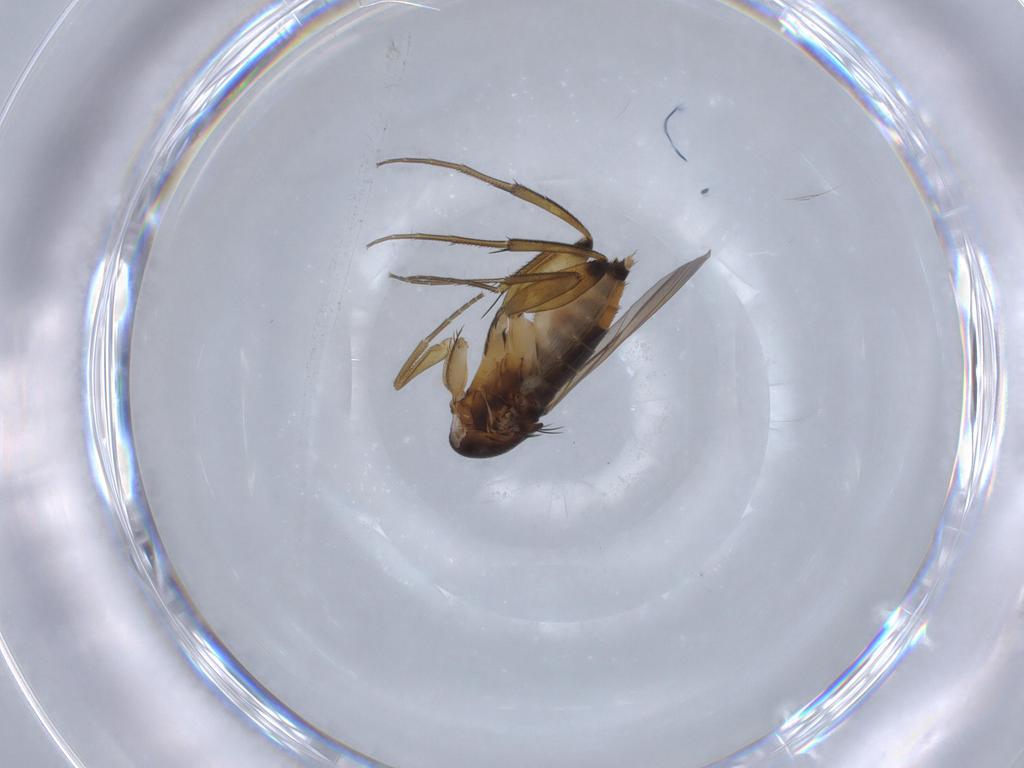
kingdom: Animalia
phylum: Arthropoda
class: Insecta
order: Diptera
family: Phoridae
